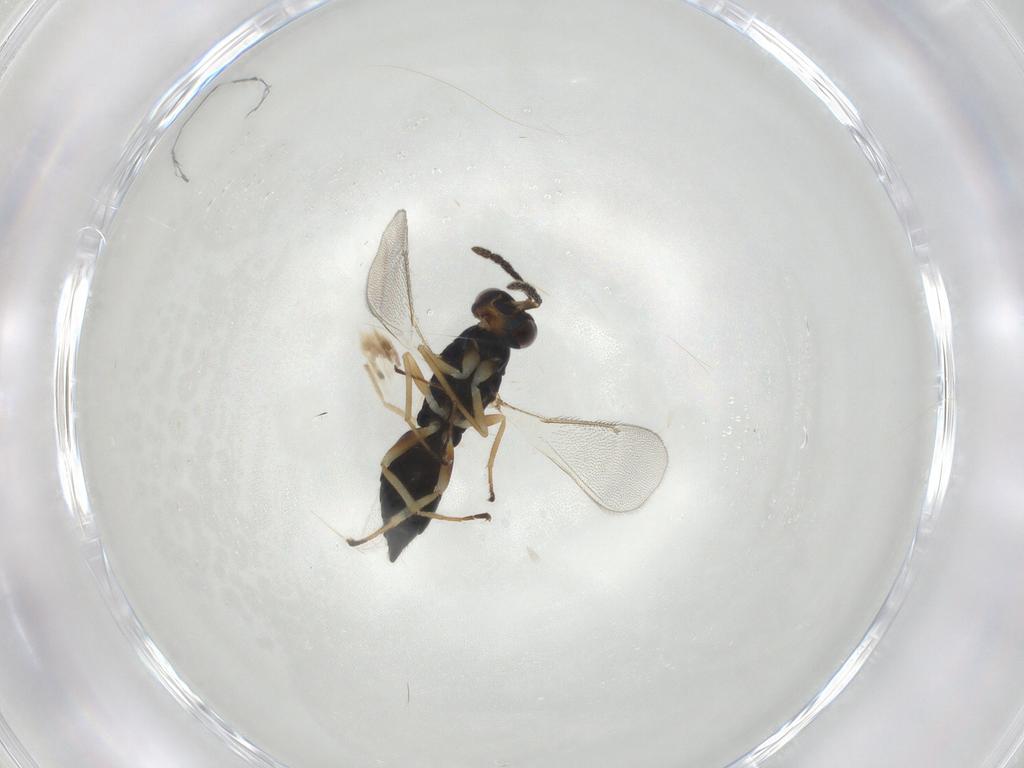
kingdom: Animalia
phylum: Arthropoda
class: Insecta
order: Hymenoptera
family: Eulophidae
